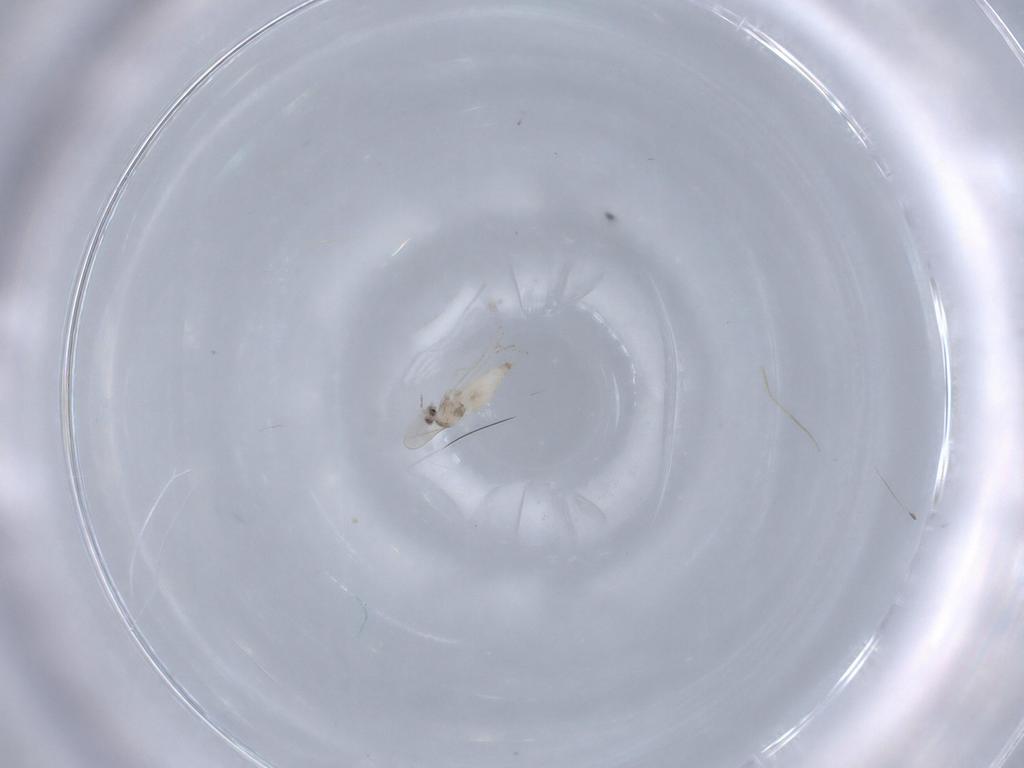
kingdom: Animalia
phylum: Arthropoda
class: Insecta
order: Diptera
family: Cecidomyiidae
